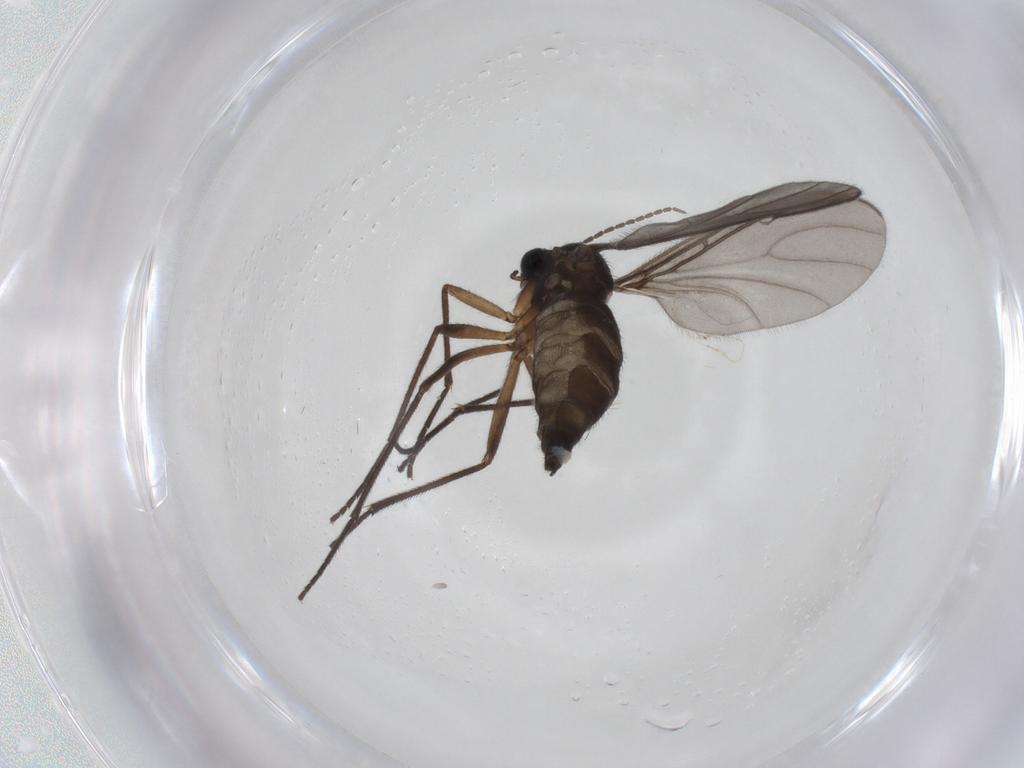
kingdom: Animalia
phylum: Arthropoda
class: Insecta
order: Diptera
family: Sciaridae
